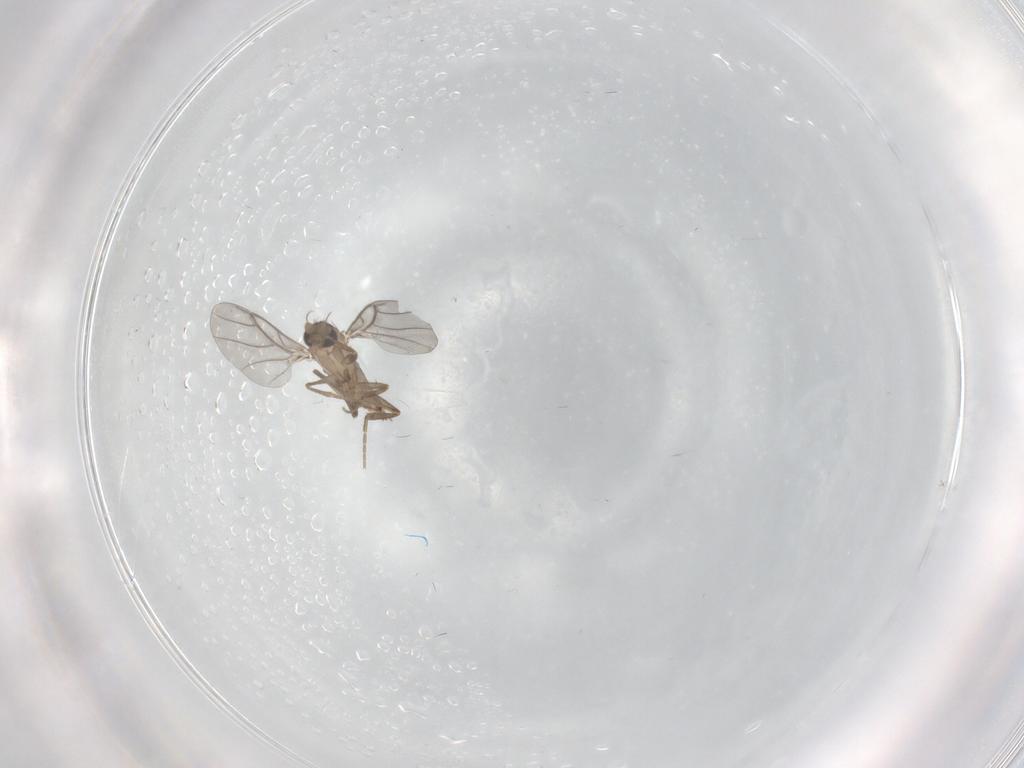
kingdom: Animalia
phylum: Arthropoda
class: Insecta
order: Diptera
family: Phoridae
